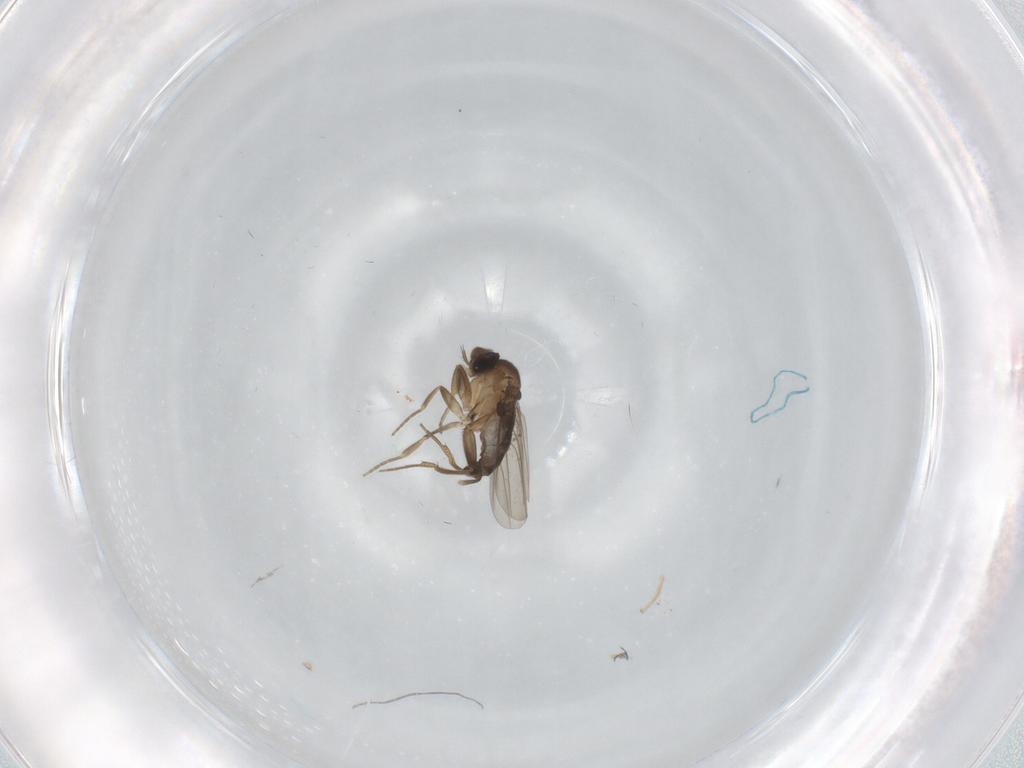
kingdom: Animalia
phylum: Arthropoda
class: Insecta
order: Diptera
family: Phoridae
